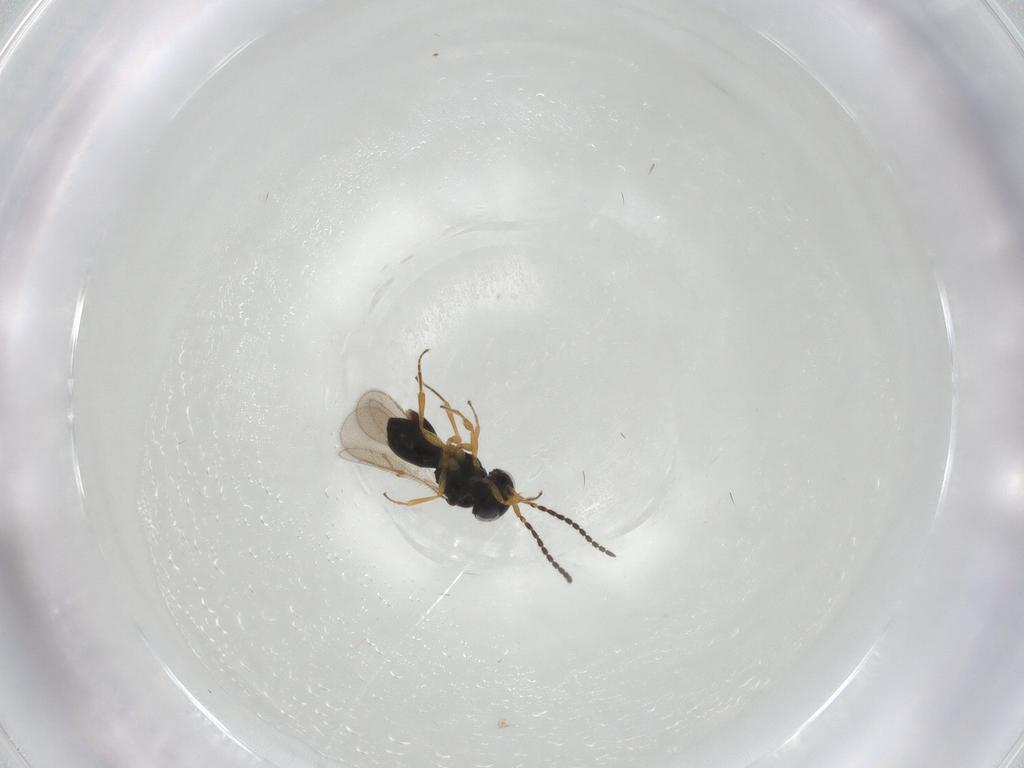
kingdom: Animalia
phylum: Arthropoda
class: Insecta
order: Hymenoptera
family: Scelionidae
